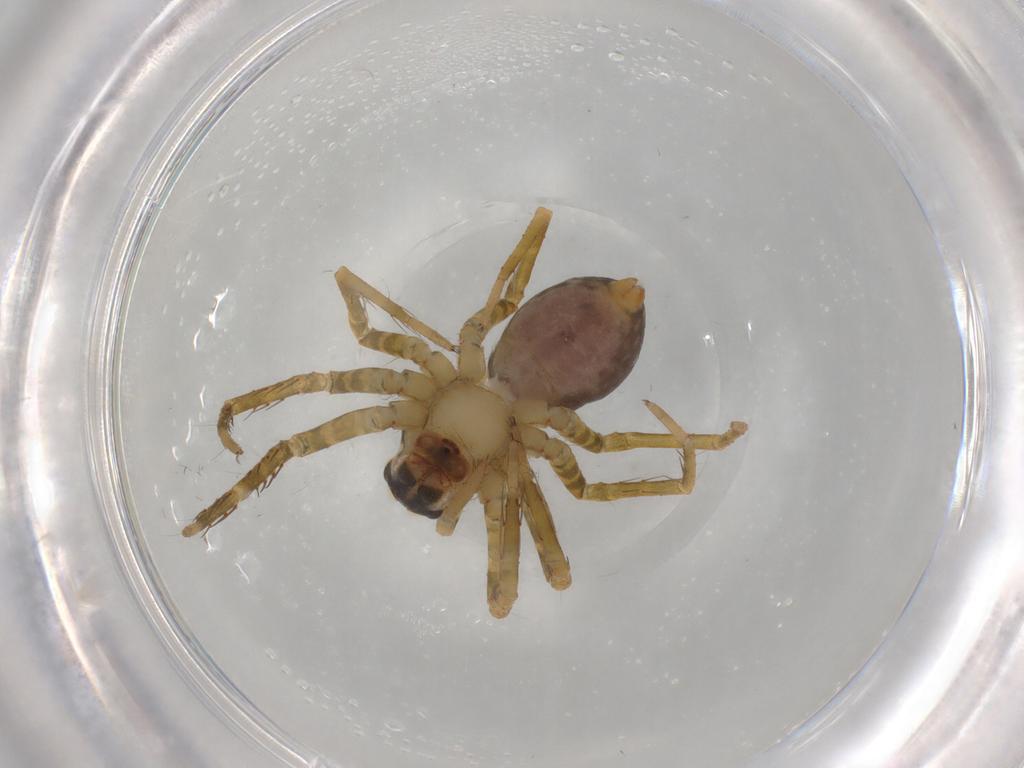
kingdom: Animalia
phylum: Arthropoda
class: Arachnida
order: Araneae
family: Ctenidae
